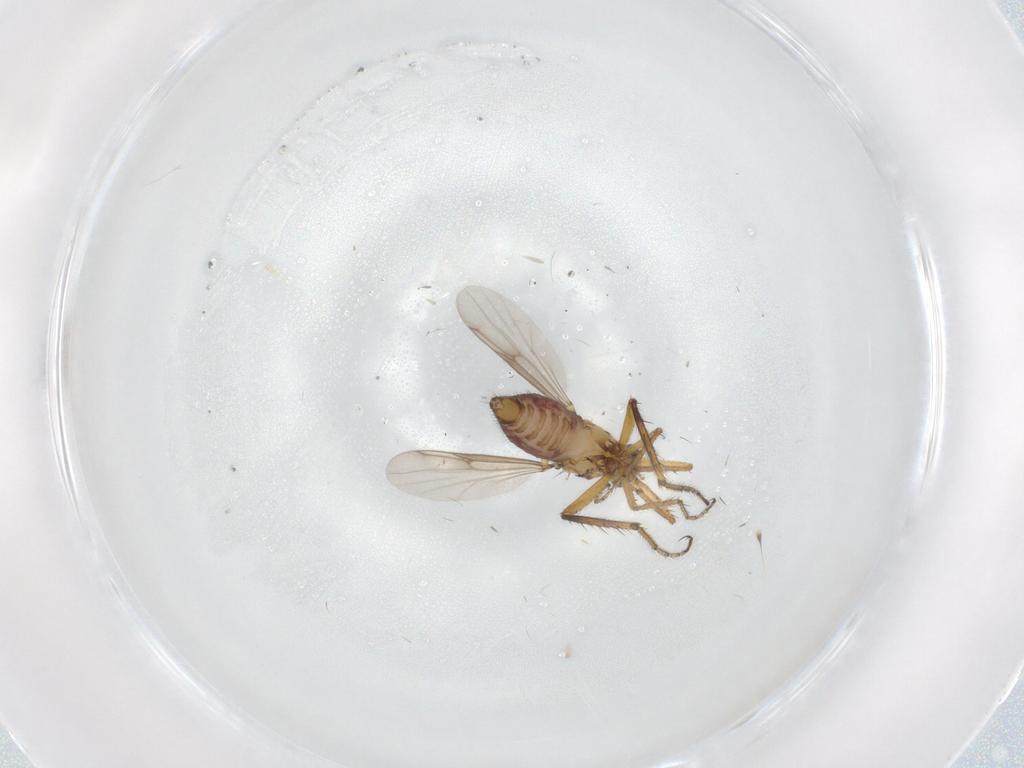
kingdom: Animalia
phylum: Arthropoda
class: Insecta
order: Diptera
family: Ceratopogonidae
